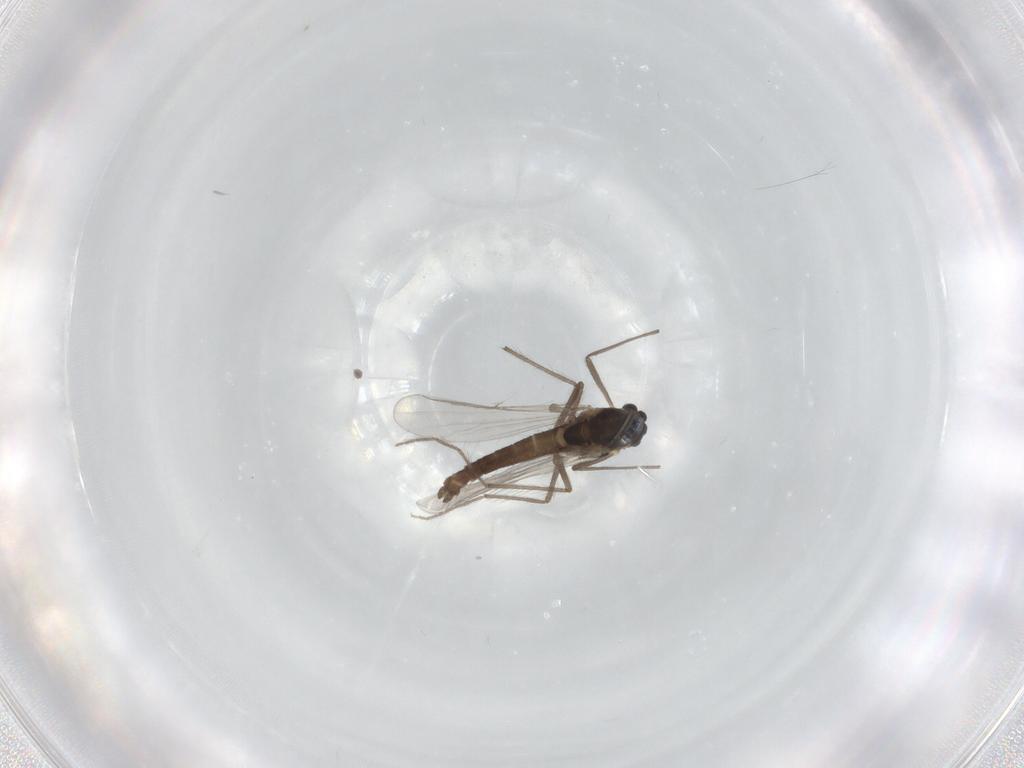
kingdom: Animalia
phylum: Arthropoda
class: Insecta
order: Diptera
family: Chironomidae
